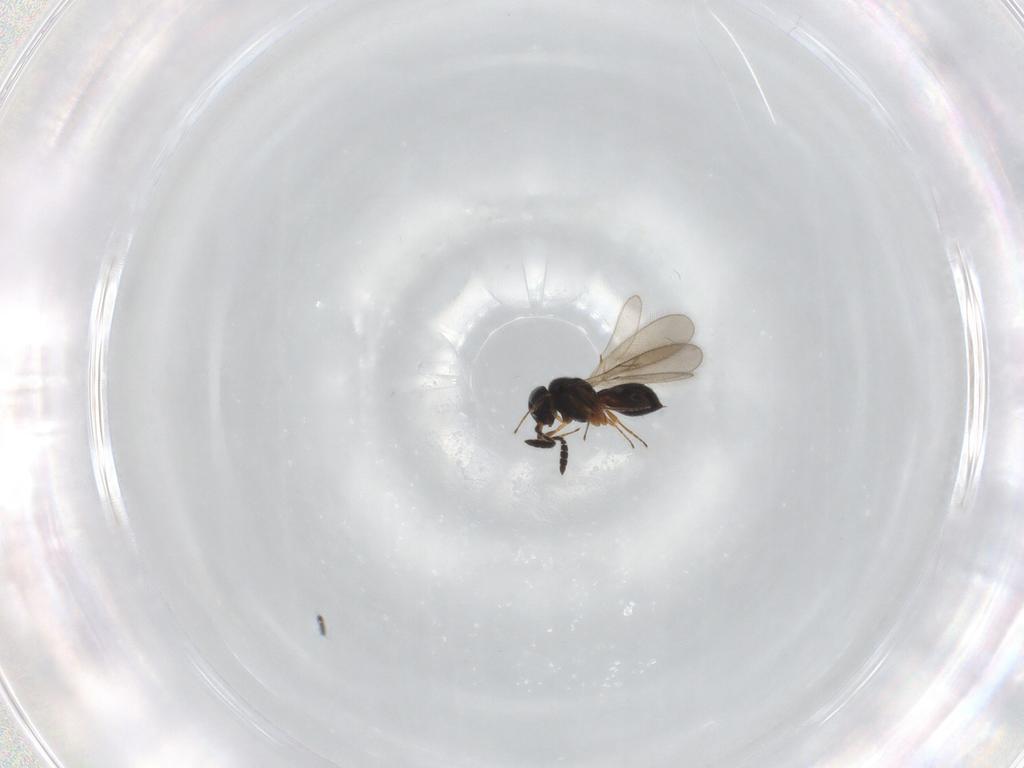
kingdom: Animalia
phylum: Arthropoda
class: Insecta
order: Hymenoptera
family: Scelionidae
